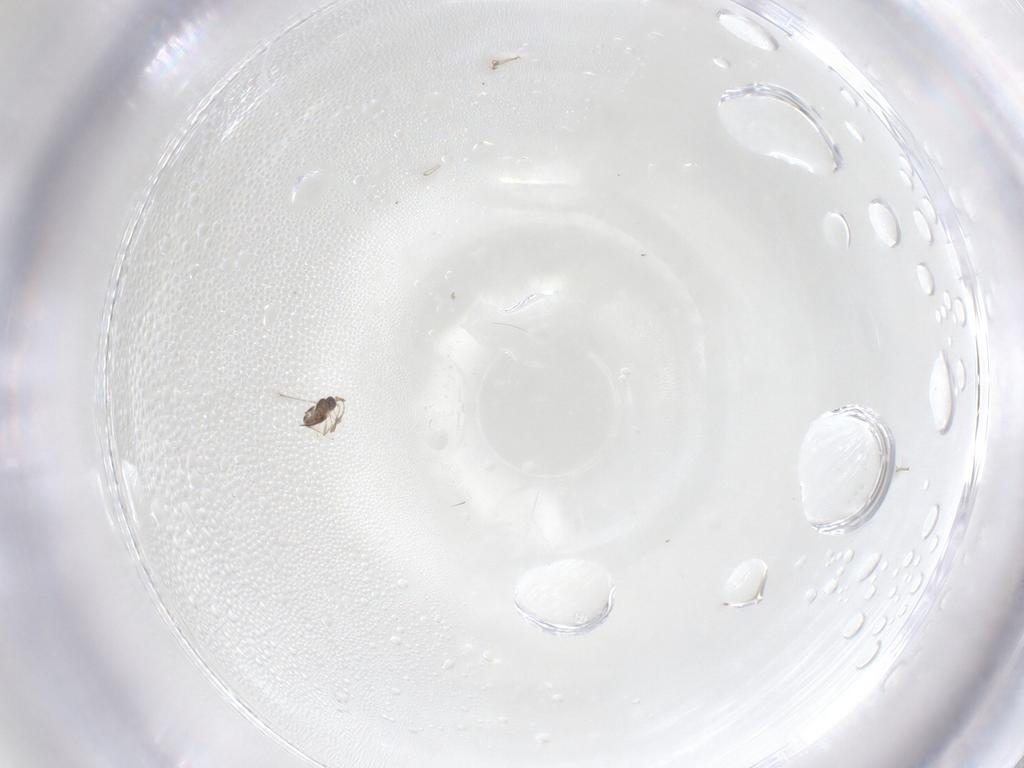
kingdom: Animalia
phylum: Arthropoda
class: Insecta
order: Hymenoptera
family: Mymaridae
